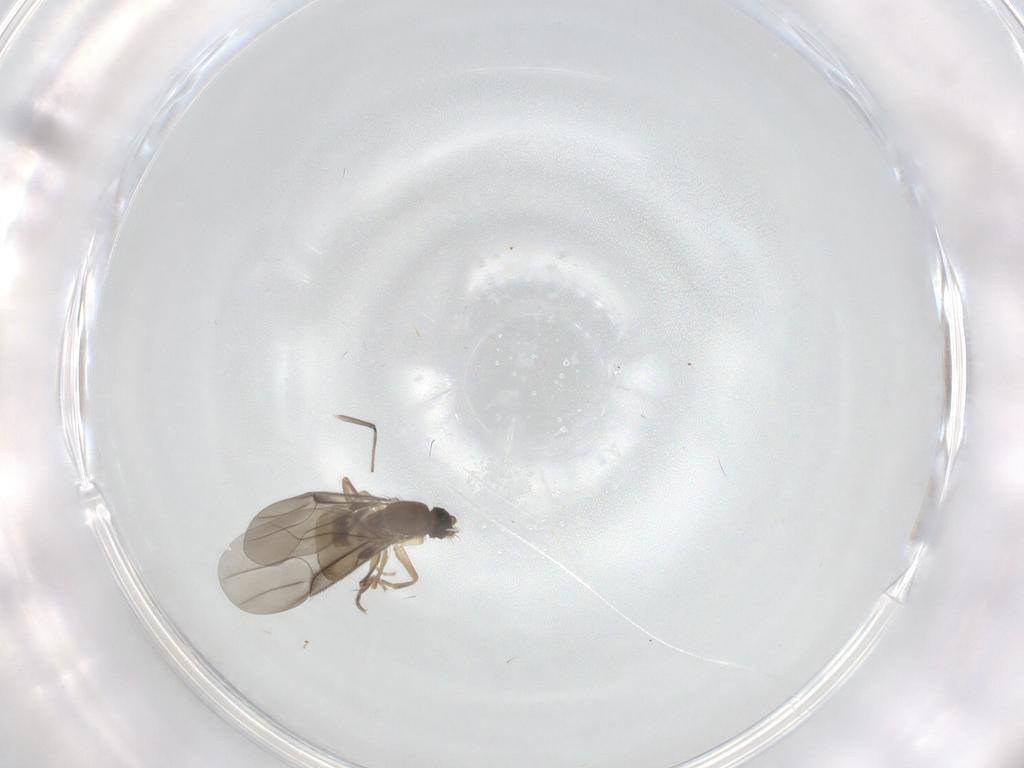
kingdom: Animalia
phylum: Arthropoda
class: Insecta
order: Diptera
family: Phoridae
